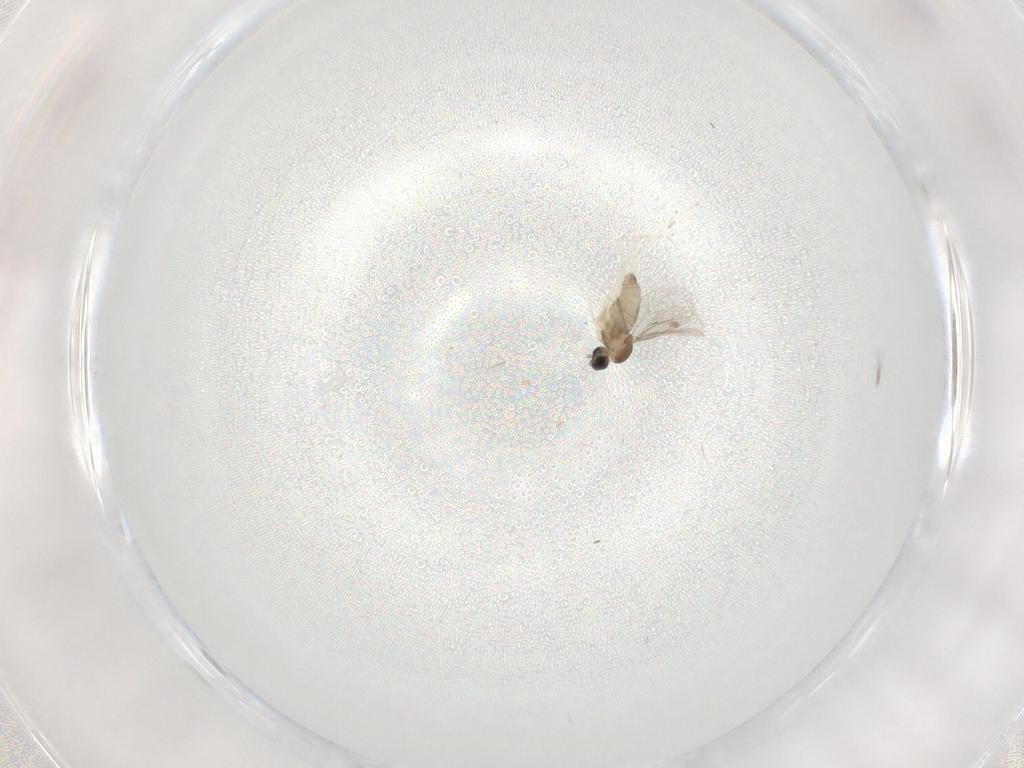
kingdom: Animalia
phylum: Arthropoda
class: Insecta
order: Diptera
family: Cecidomyiidae
